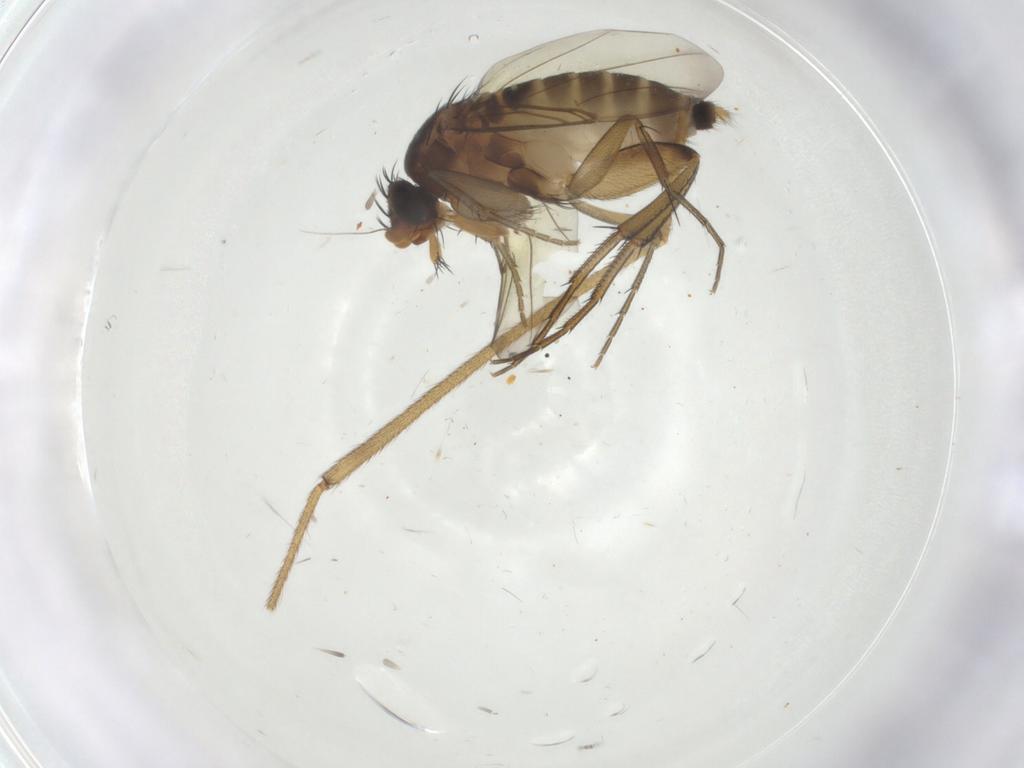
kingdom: Animalia
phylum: Arthropoda
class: Insecta
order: Diptera
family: Phoridae
